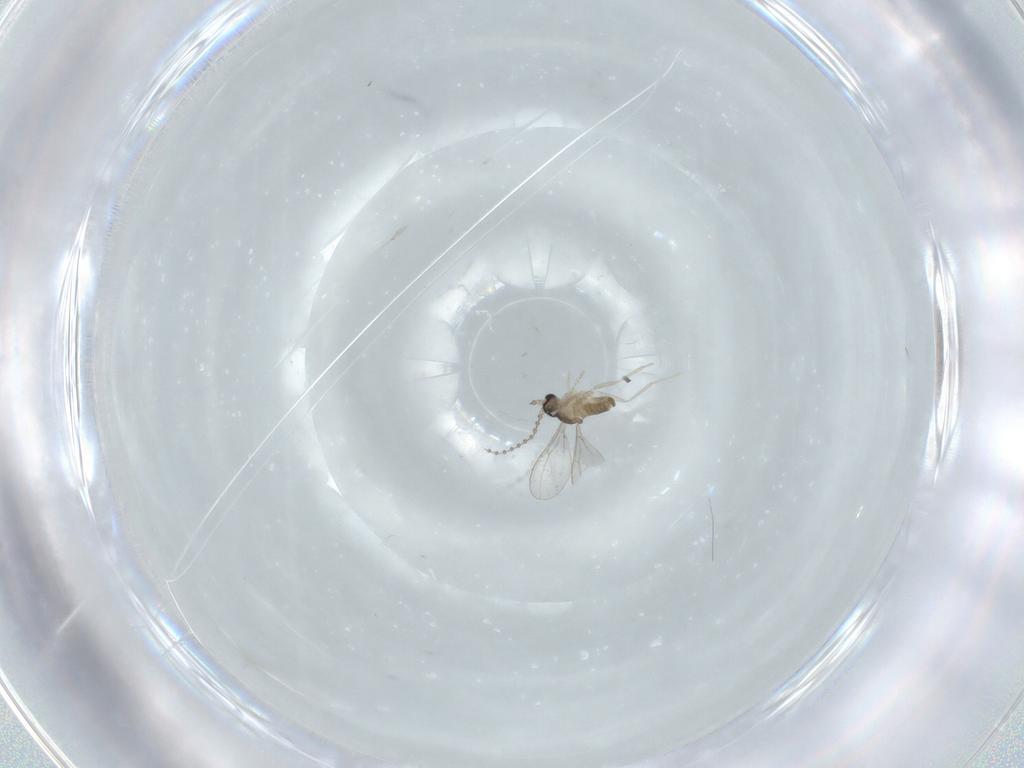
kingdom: Animalia
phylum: Arthropoda
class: Insecta
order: Diptera
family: Cecidomyiidae
